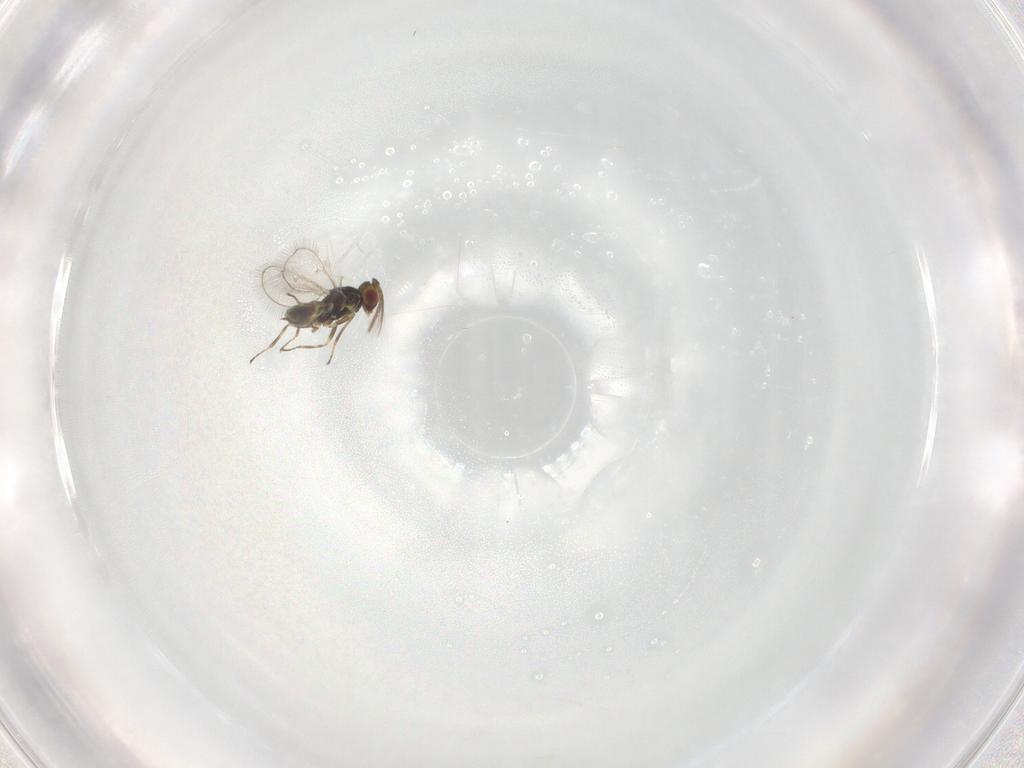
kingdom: Animalia
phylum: Arthropoda
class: Insecta
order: Hymenoptera
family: Eulophidae
